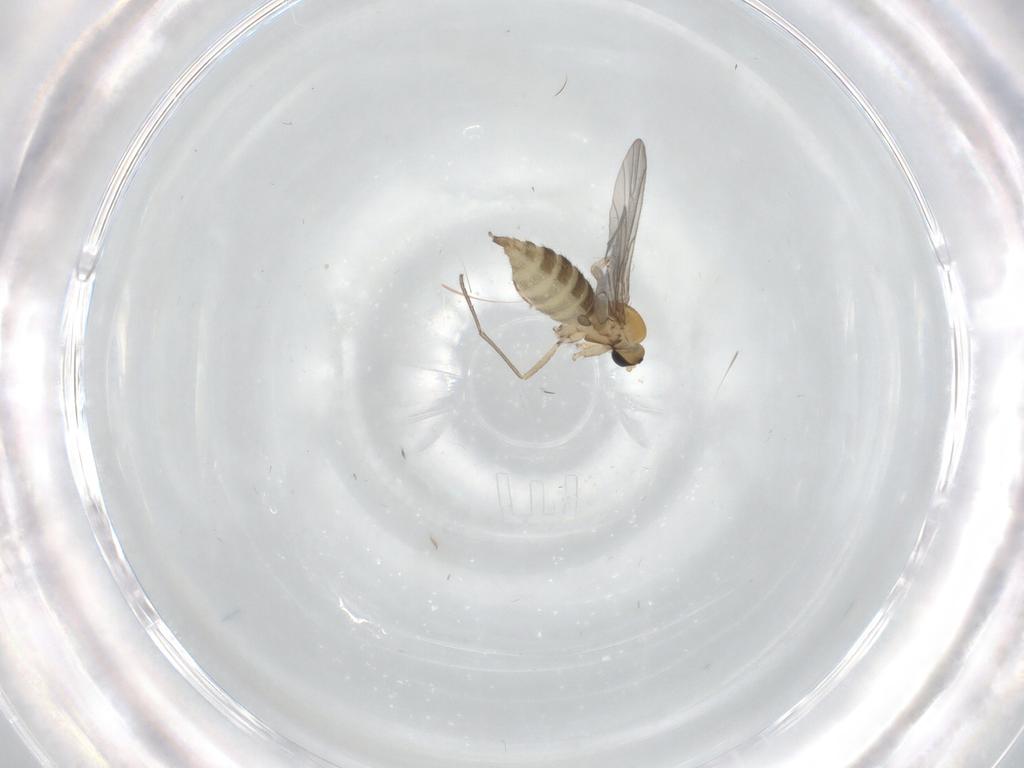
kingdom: Animalia
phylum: Arthropoda
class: Insecta
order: Diptera
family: Sciaridae
